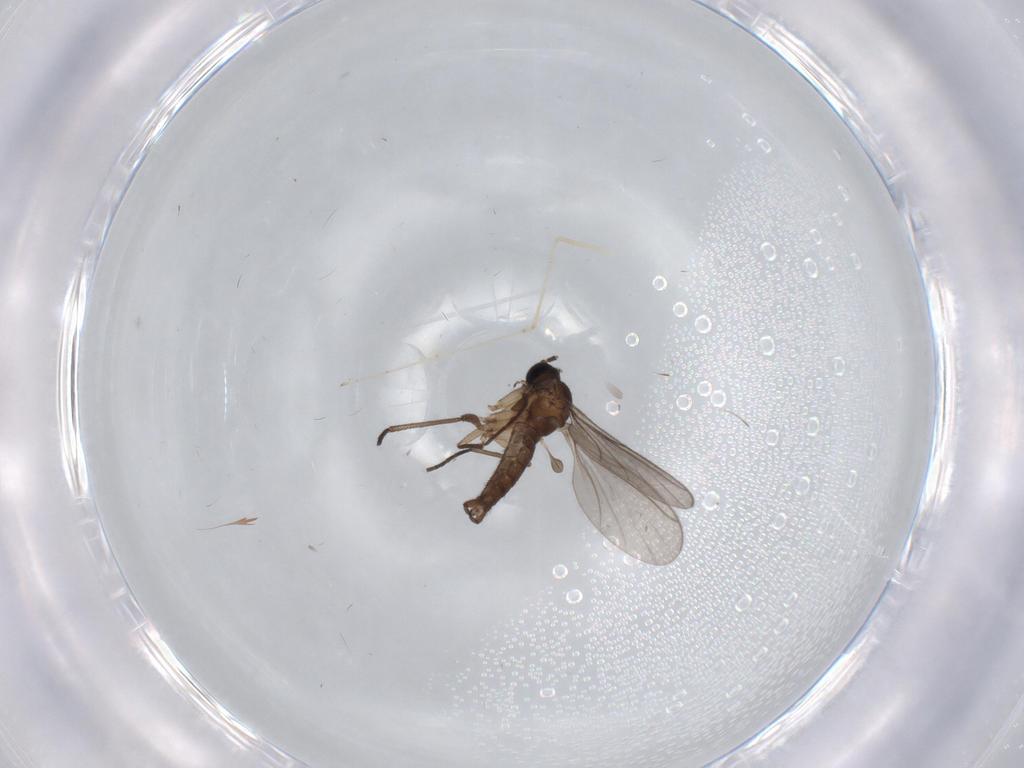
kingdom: Animalia
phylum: Arthropoda
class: Insecta
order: Diptera
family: Sciaridae
